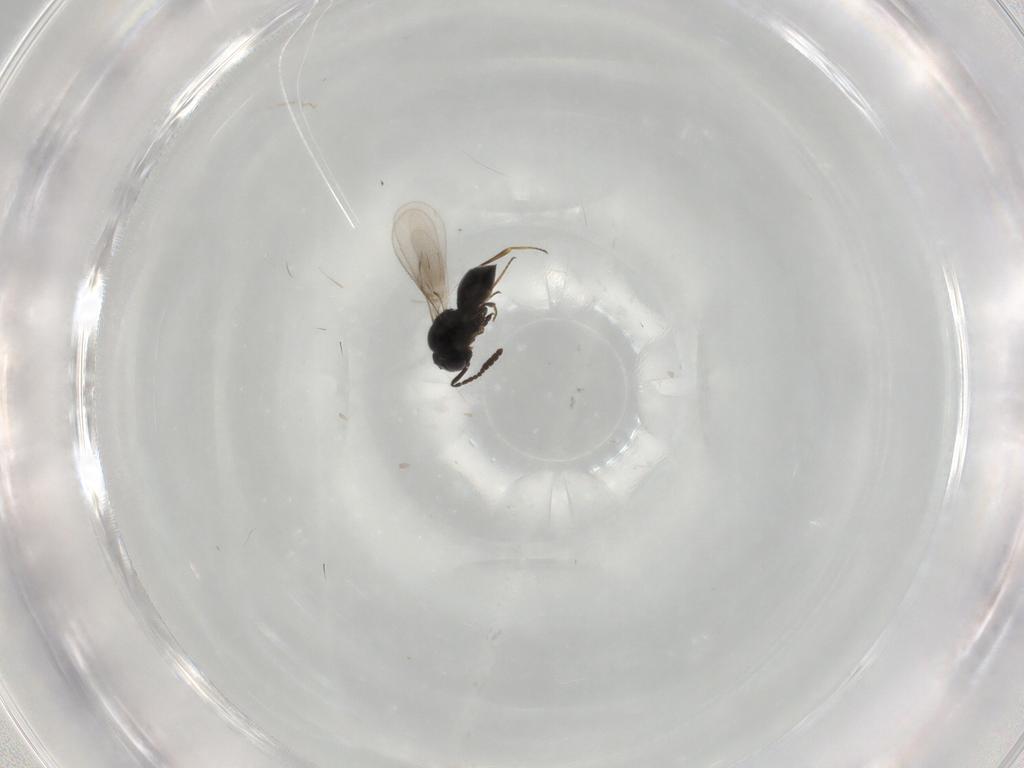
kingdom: Animalia
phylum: Arthropoda
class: Insecta
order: Hymenoptera
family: Scelionidae
